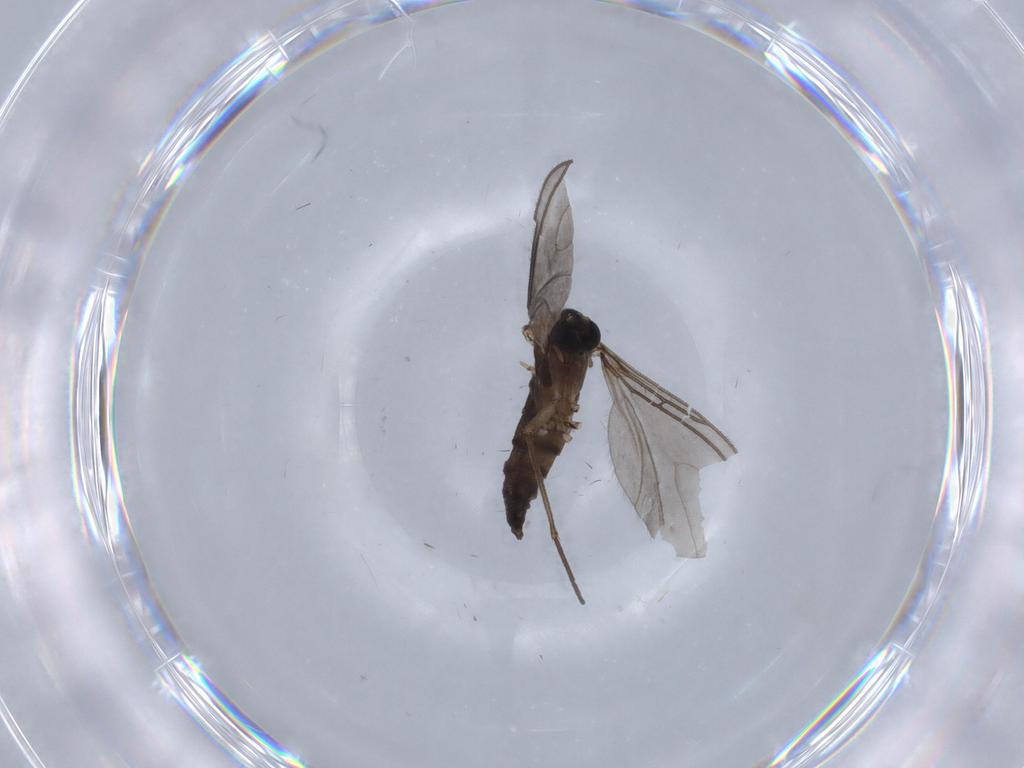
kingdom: Animalia
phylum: Arthropoda
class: Insecta
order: Diptera
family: Sciaridae
